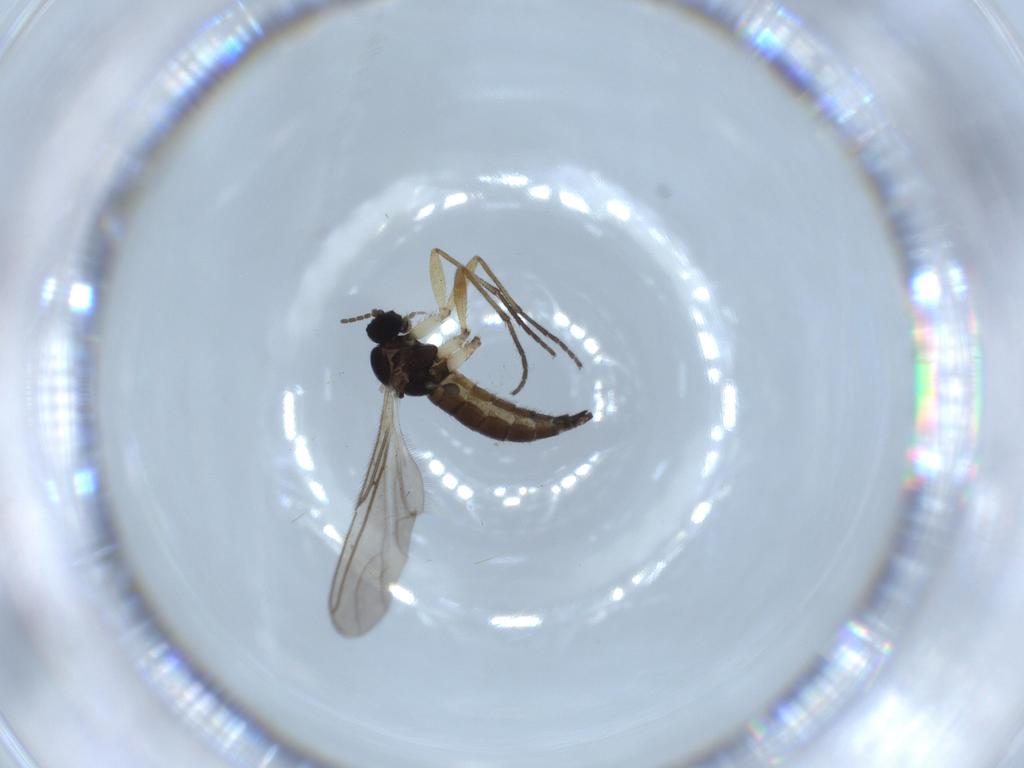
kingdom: Animalia
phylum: Arthropoda
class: Insecta
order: Diptera
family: Sciaridae
